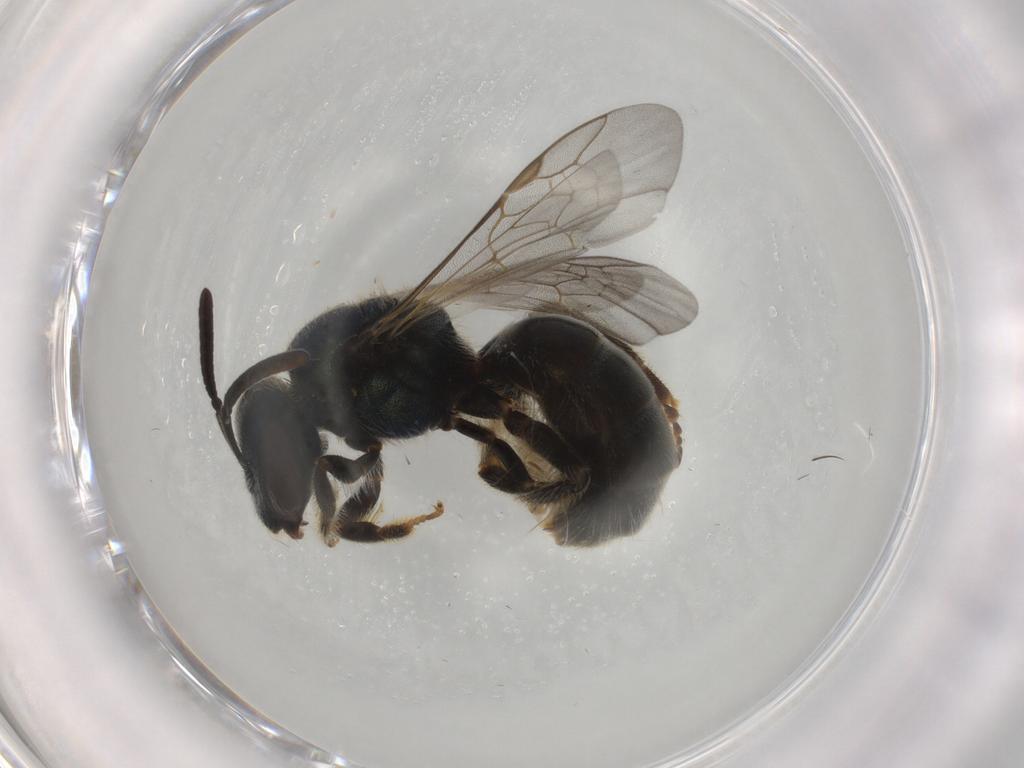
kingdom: Animalia
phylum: Arthropoda
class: Insecta
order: Hymenoptera
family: Halictidae
